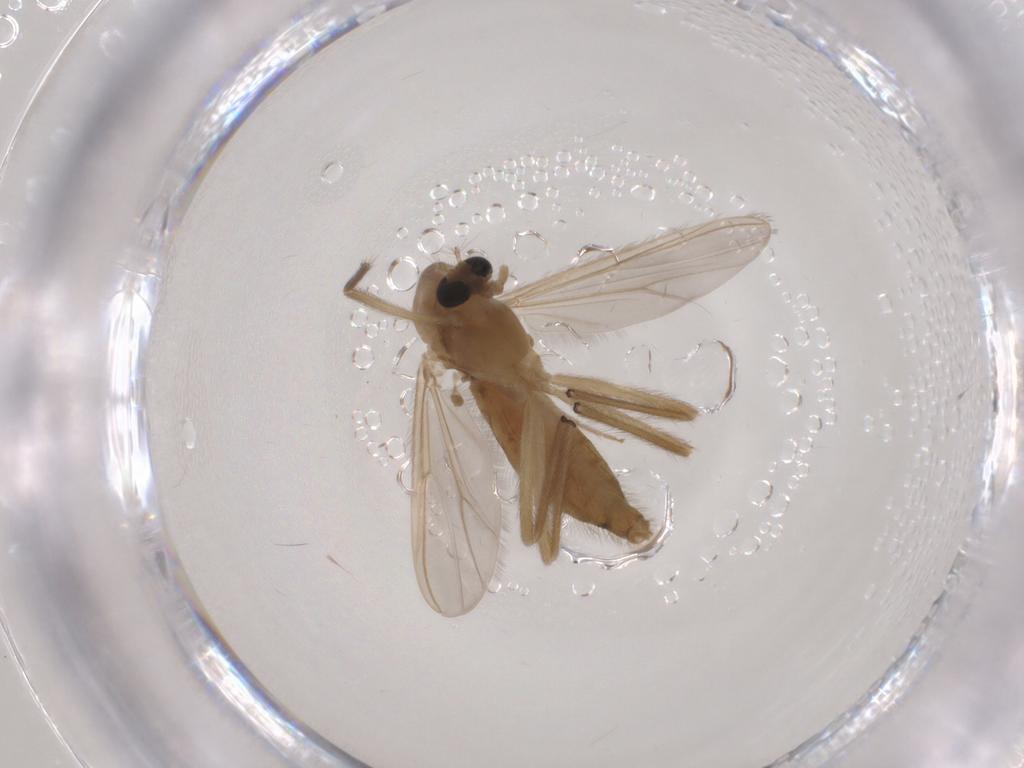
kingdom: Animalia
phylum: Arthropoda
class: Insecta
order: Diptera
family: Chironomidae
